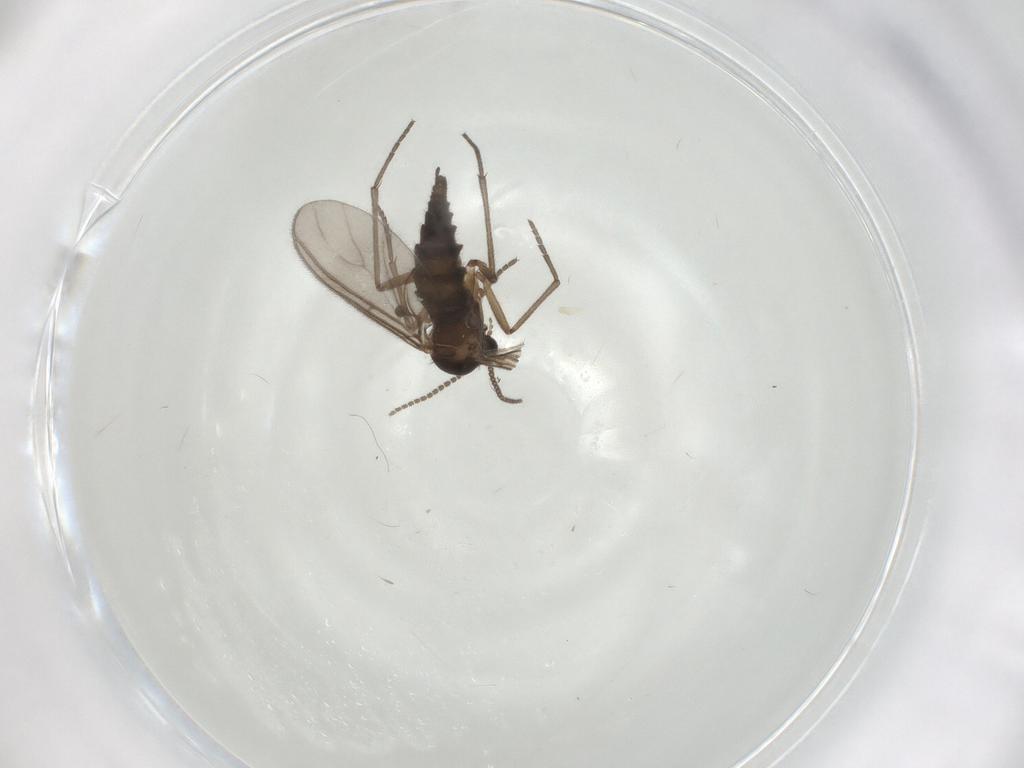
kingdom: Animalia
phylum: Arthropoda
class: Insecta
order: Diptera
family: Sciaridae
